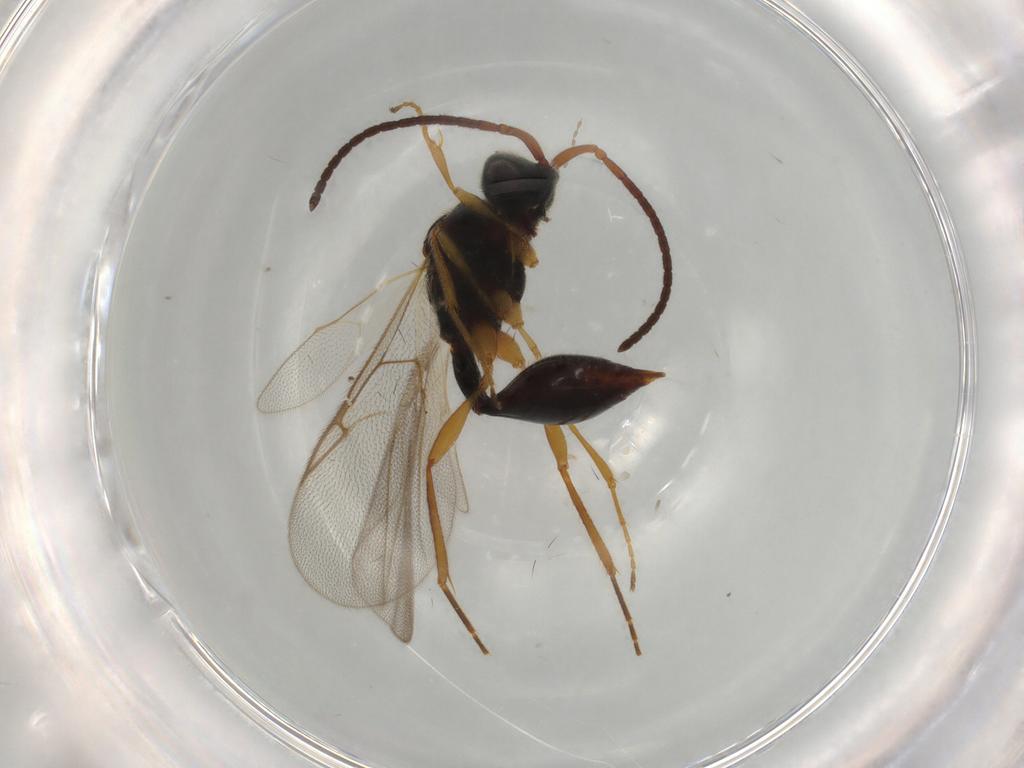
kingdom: Animalia
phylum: Arthropoda
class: Insecta
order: Hymenoptera
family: Diapriidae
